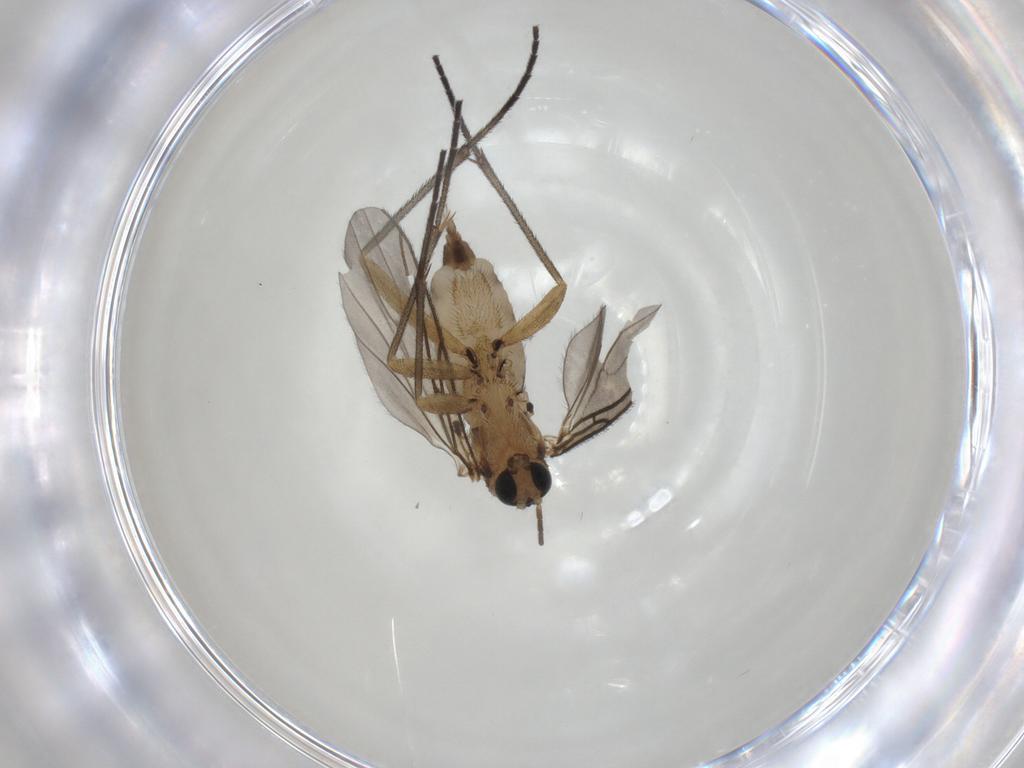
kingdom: Animalia
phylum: Arthropoda
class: Insecta
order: Diptera
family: Sciaridae
